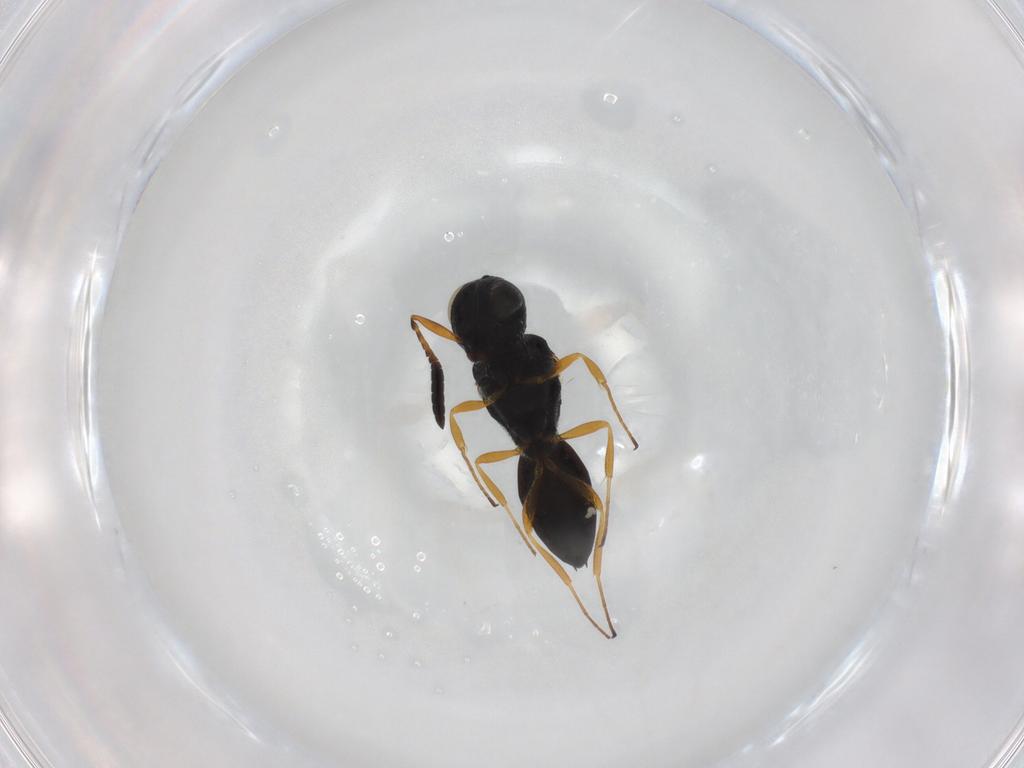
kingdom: Animalia
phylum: Arthropoda
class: Insecta
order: Hymenoptera
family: Scelionidae
